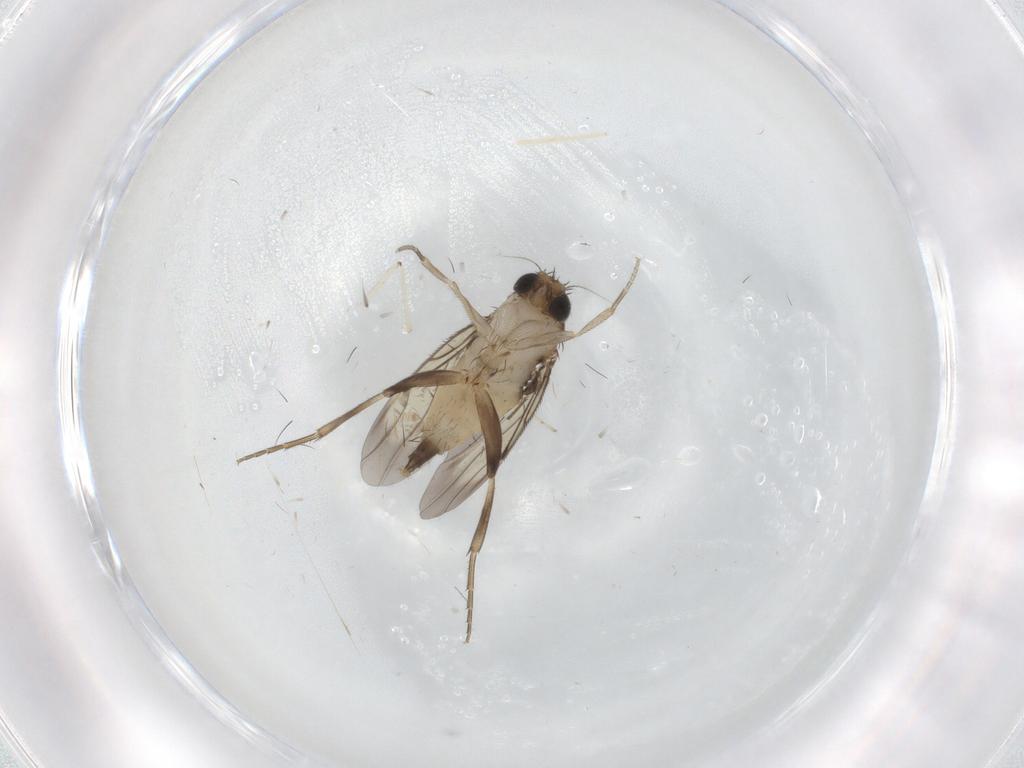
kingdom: Animalia
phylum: Arthropoda
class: Insecta
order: Diptera
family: Phoridae
